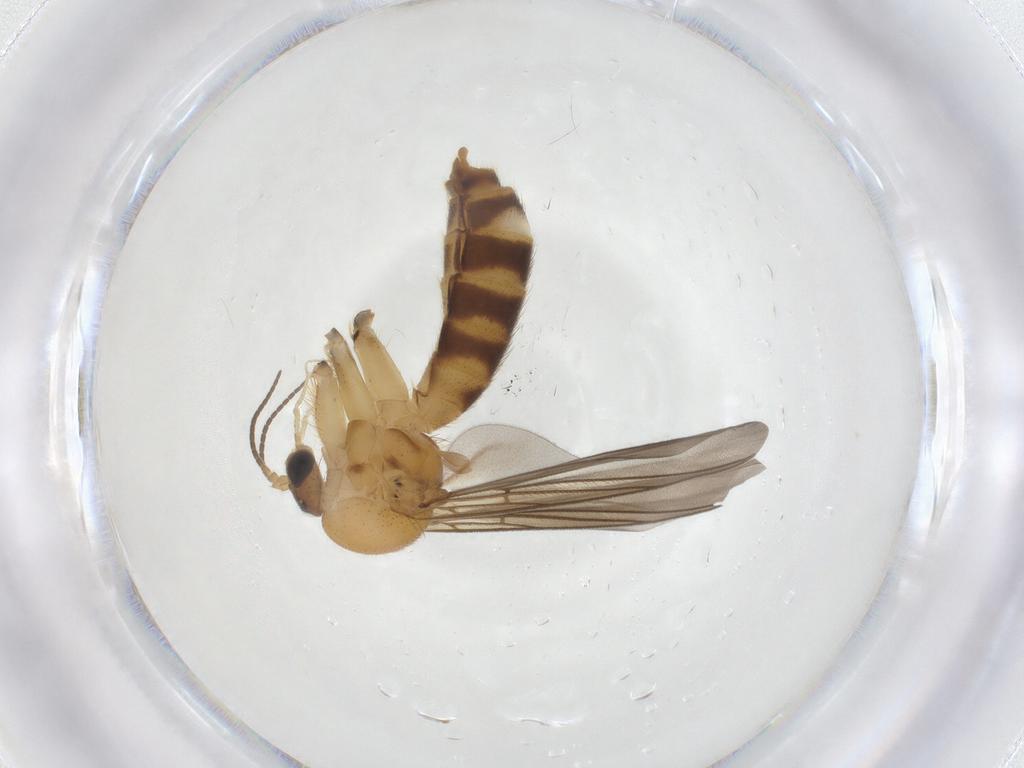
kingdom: Animalia
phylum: Arthropoda
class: Insecta
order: Diptera
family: Mycetophilidae
